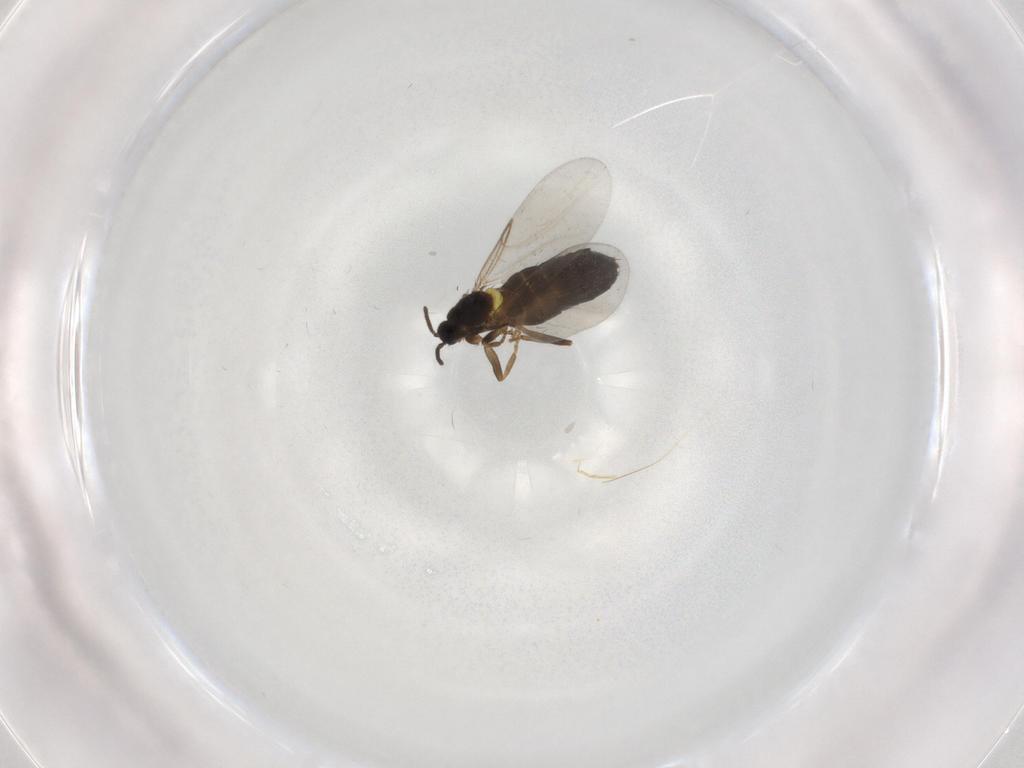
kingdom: Animalia
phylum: Arthropoda
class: Insecta
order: Diptera
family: Scatopsidae
